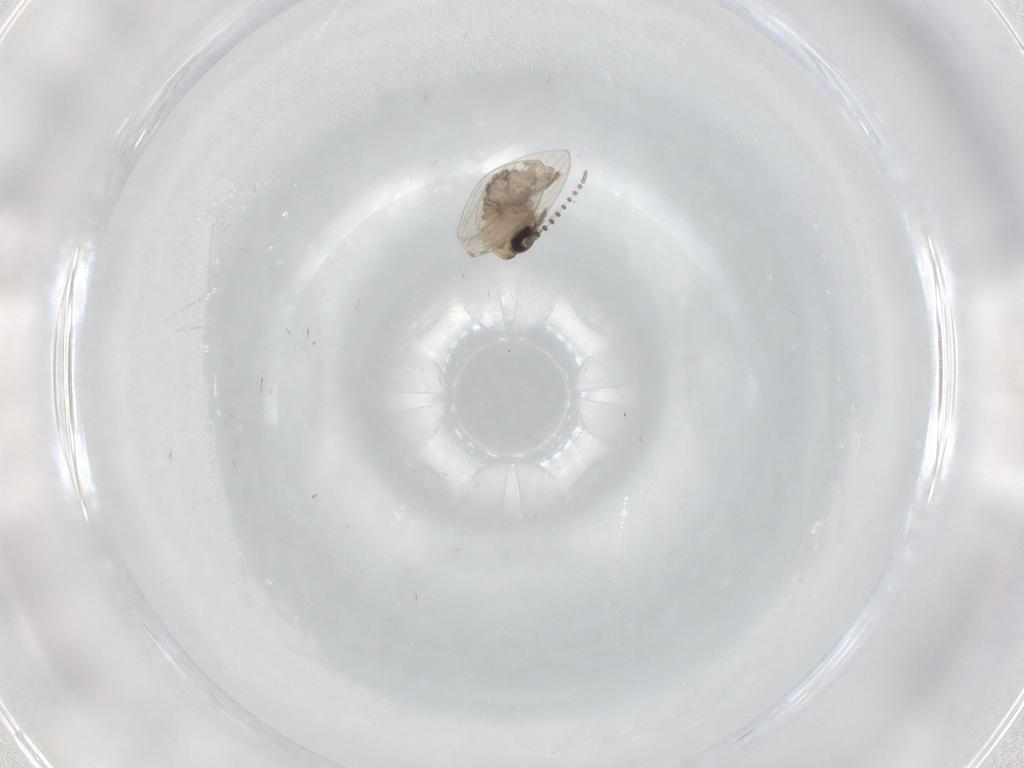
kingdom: Animalia
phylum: Arthropoda
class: Insecta
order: Diptera
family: Psychodidae
